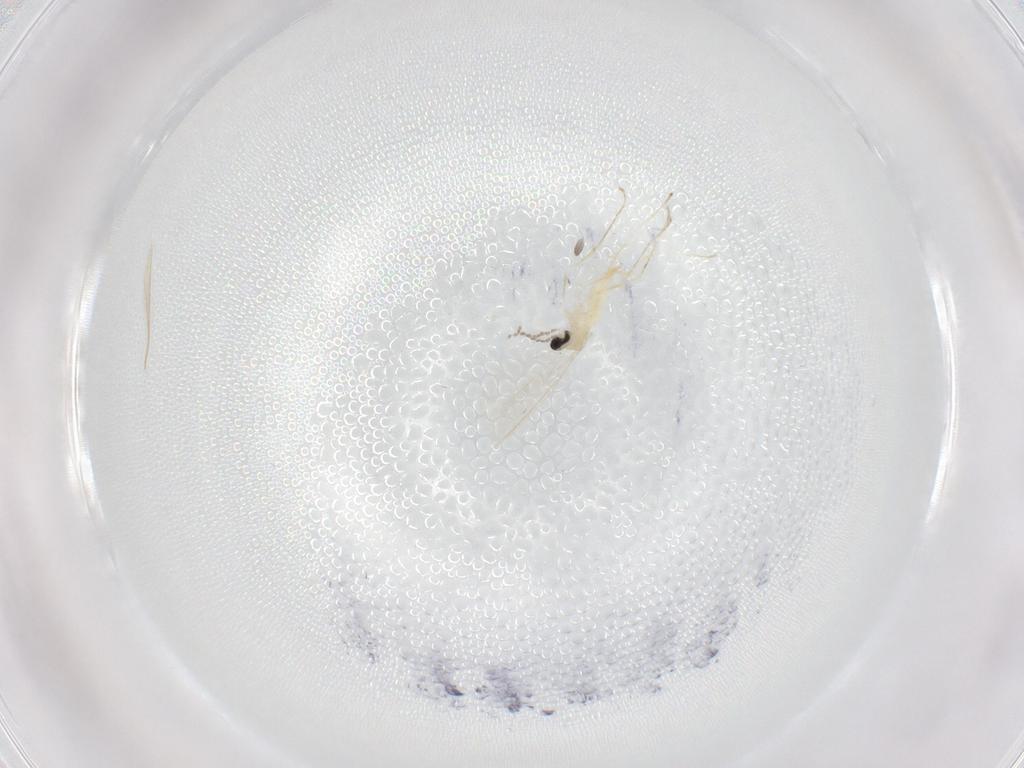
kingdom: Animalia
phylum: Arthropoda
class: Insecta
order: Diptera
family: Cecidomyiidae
